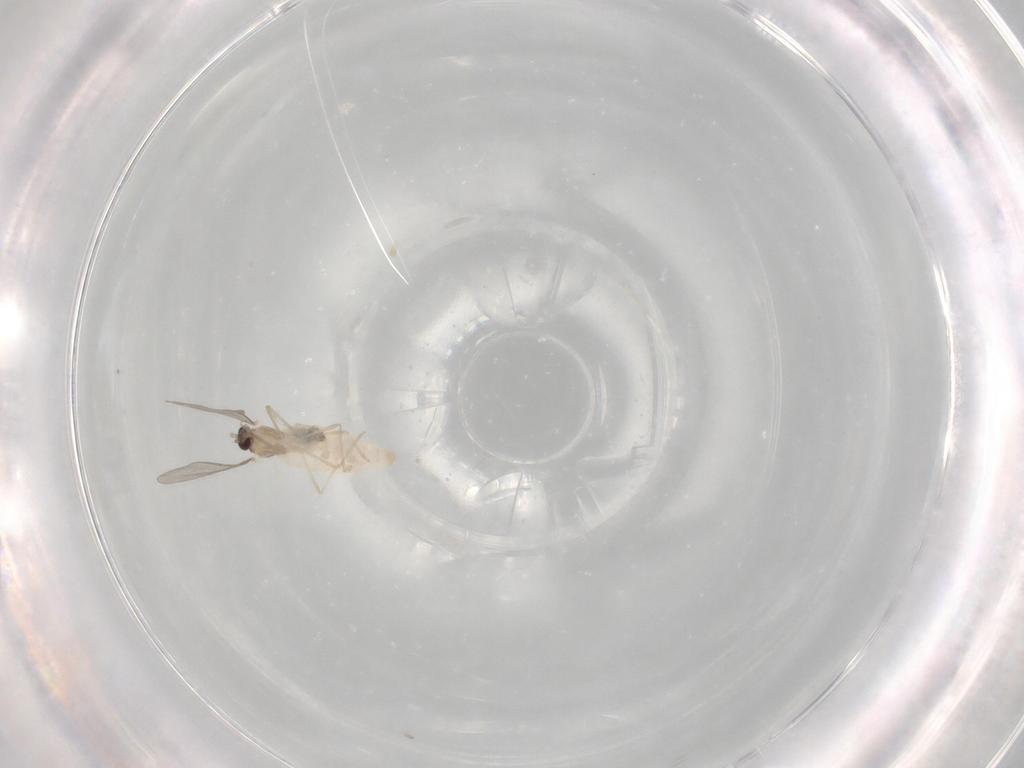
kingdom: Animalia
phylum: Arthropoda
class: Insecta
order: Diptera
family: Cecidomyiidae
